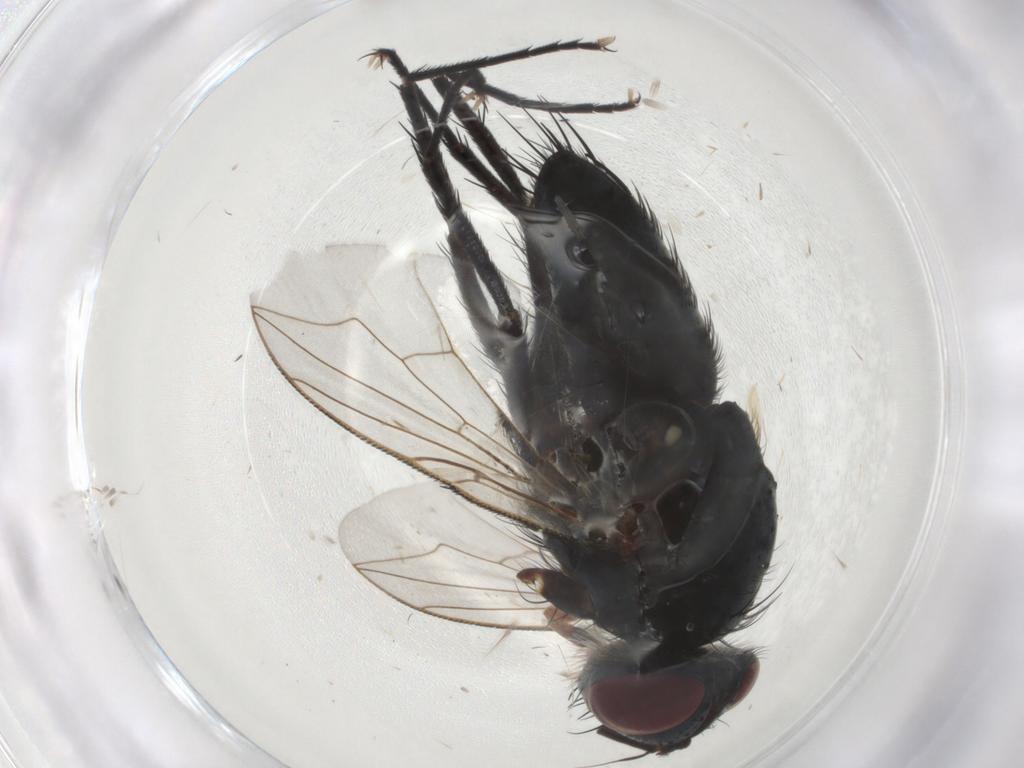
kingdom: Animalia
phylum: Arthropoda
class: Insecta
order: Diptera
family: Tachinidae
